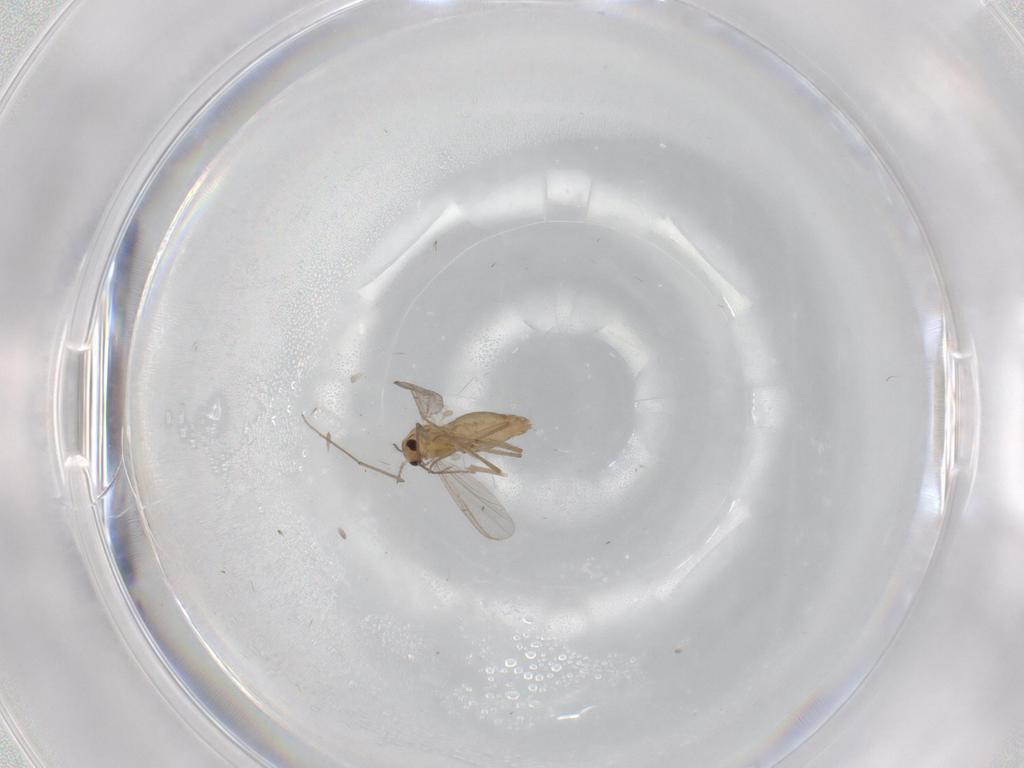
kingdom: Animalia
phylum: Arthropoda
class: Insecta
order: Diptera
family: Chironomidae
